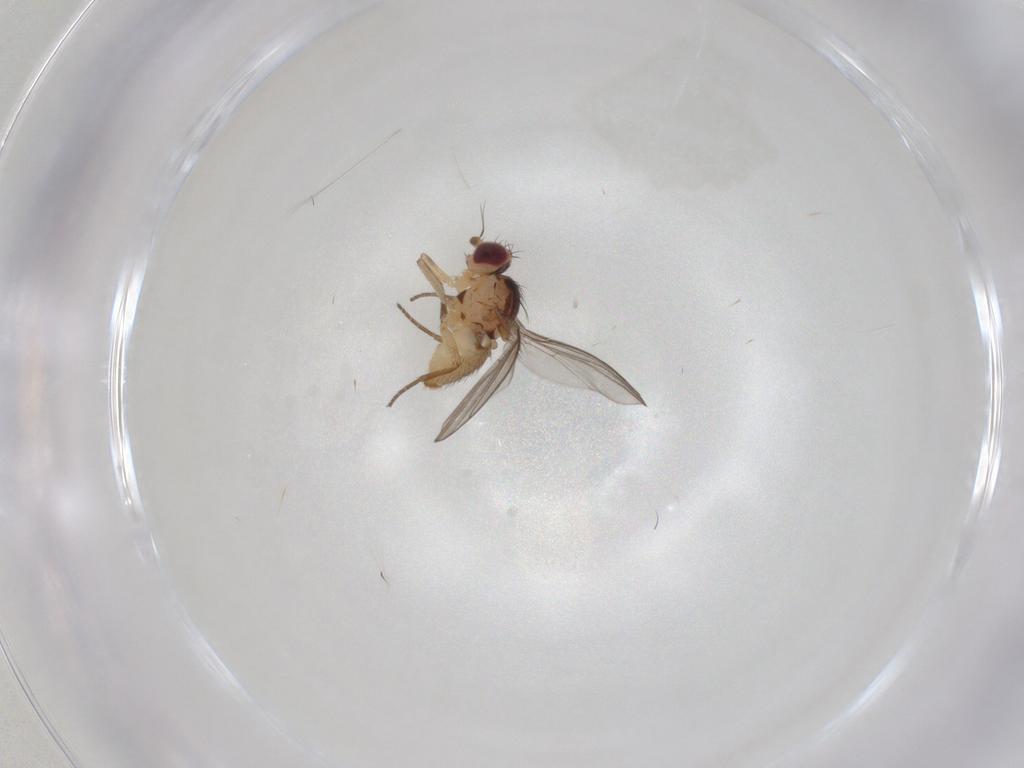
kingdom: Animalia
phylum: Arthropoda
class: Insecta
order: Diptera
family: Agromyzidae
